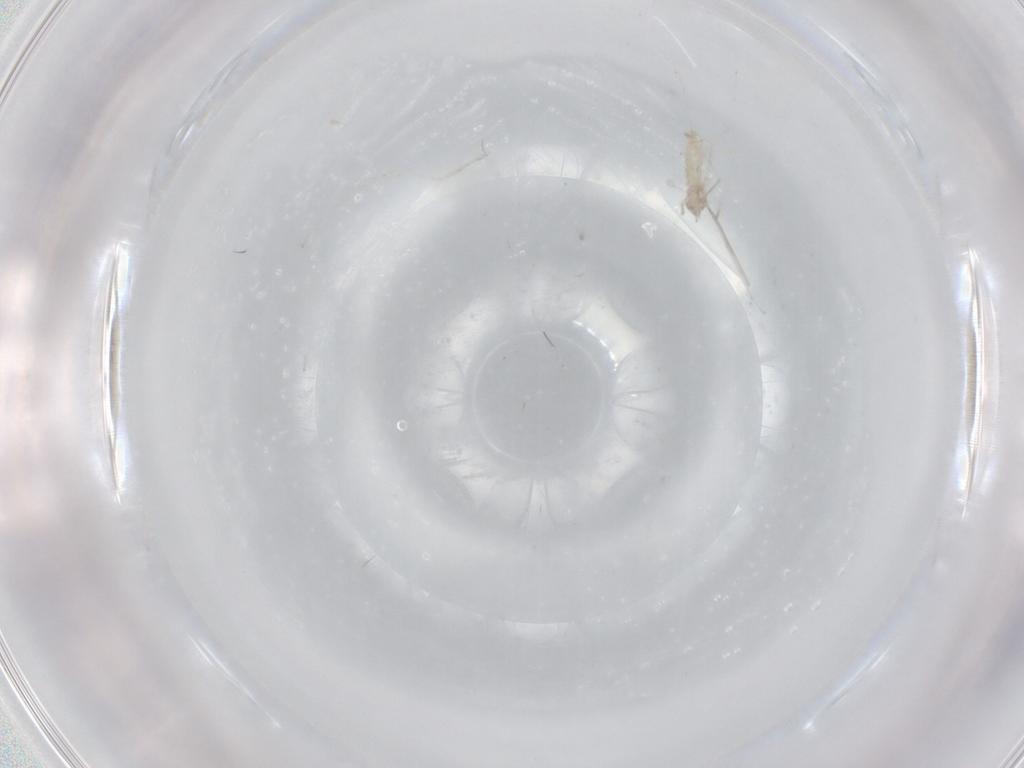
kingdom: Animalia
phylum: Arthropoda
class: Insecta
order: Diptera
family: Cecidomyiidae
